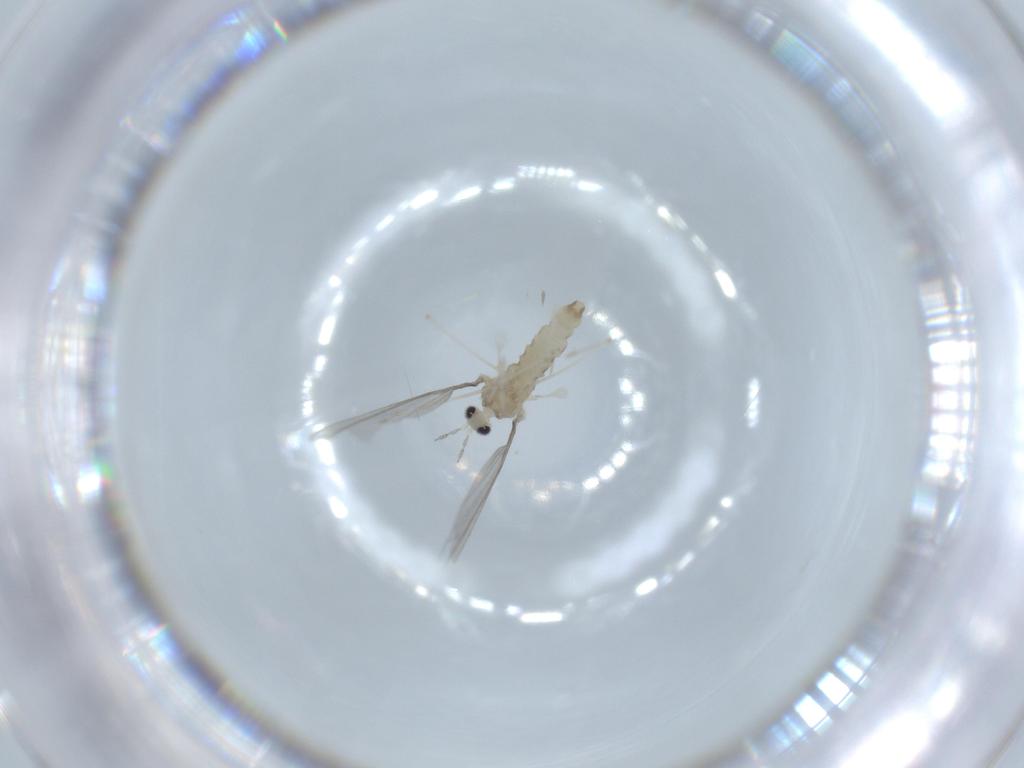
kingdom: Animalia
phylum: Arthropoda
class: Insecta
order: Diptera
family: Cecidomyiidae
